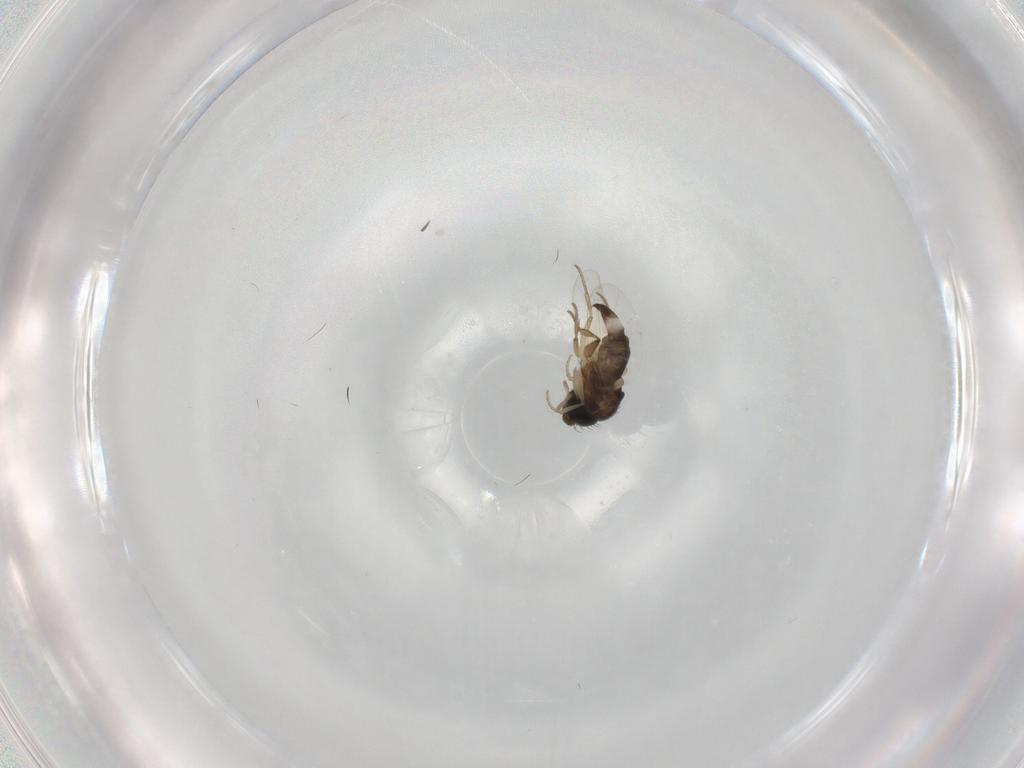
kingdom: Animalia
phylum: Arthropoda
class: Insecta
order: Diptera
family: Phoridae
